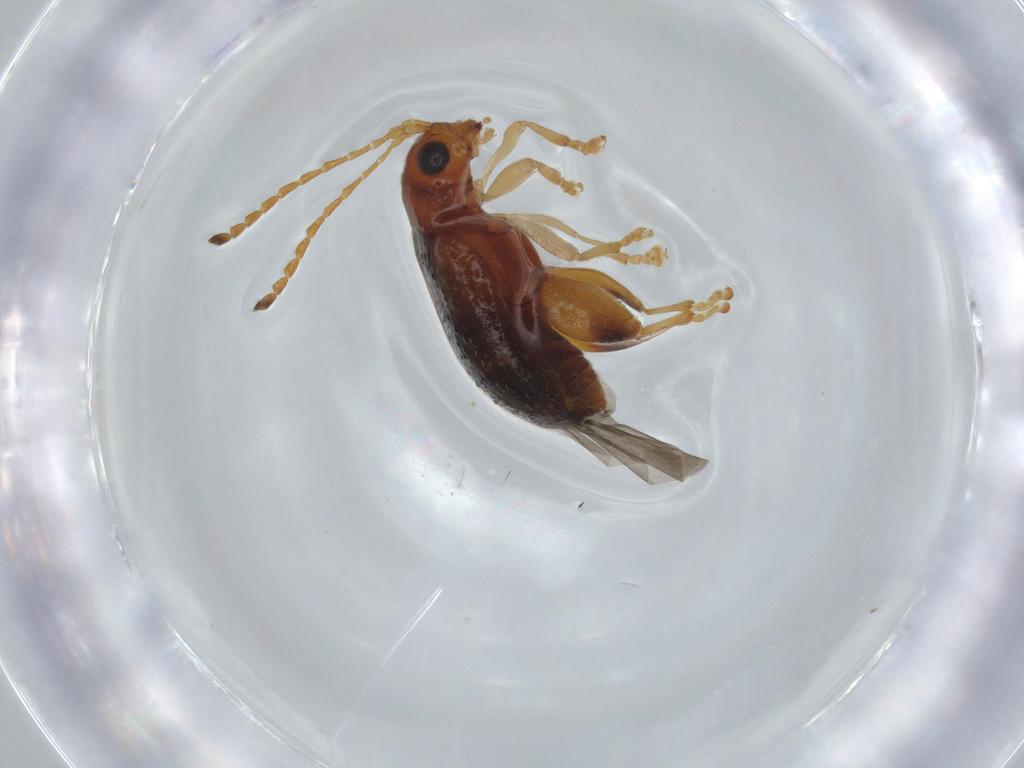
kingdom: Animalia
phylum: Arthropoda
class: Insecta
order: Coleoptera
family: Chrysomelidae
